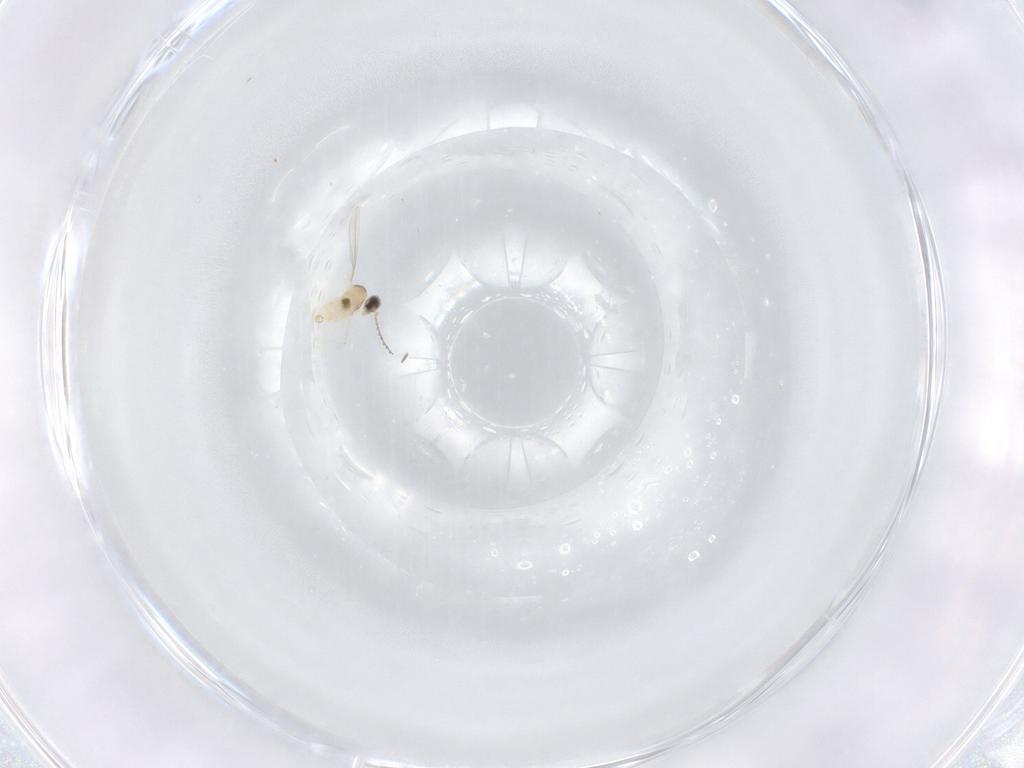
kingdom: Animalia
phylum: Arthropoda
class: Insecta
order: Diptera
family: Cecidomyiidae
